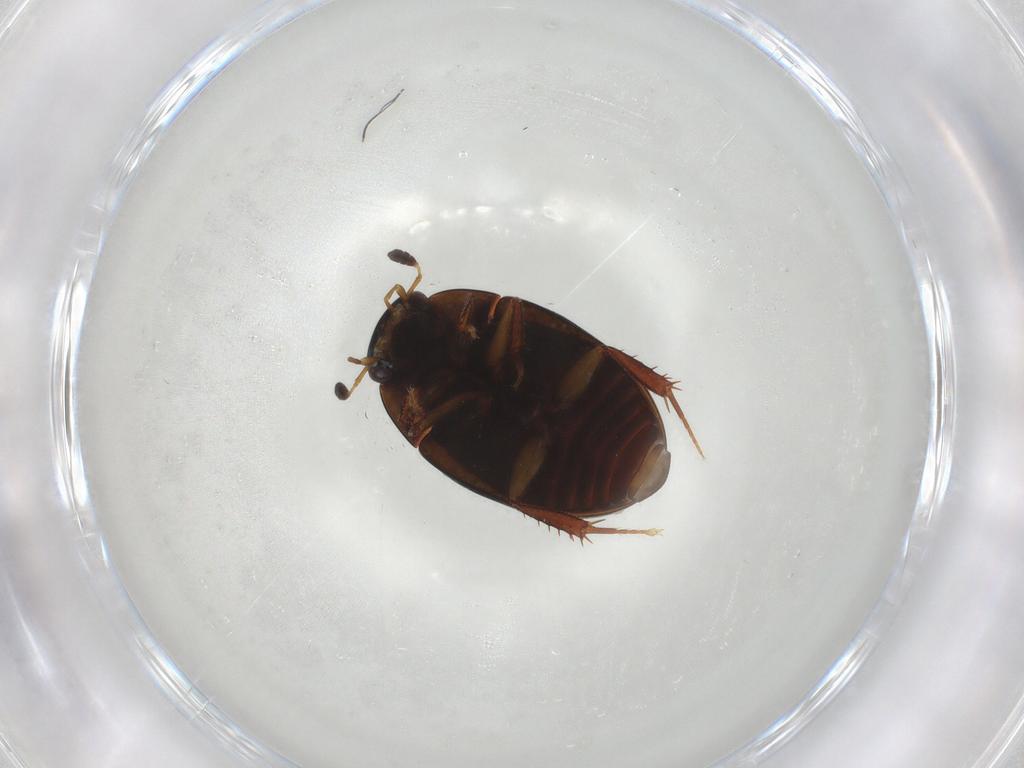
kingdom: Animalia
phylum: Arthropoda
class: Insecta
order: Coleoptera
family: Hydrophilidae
